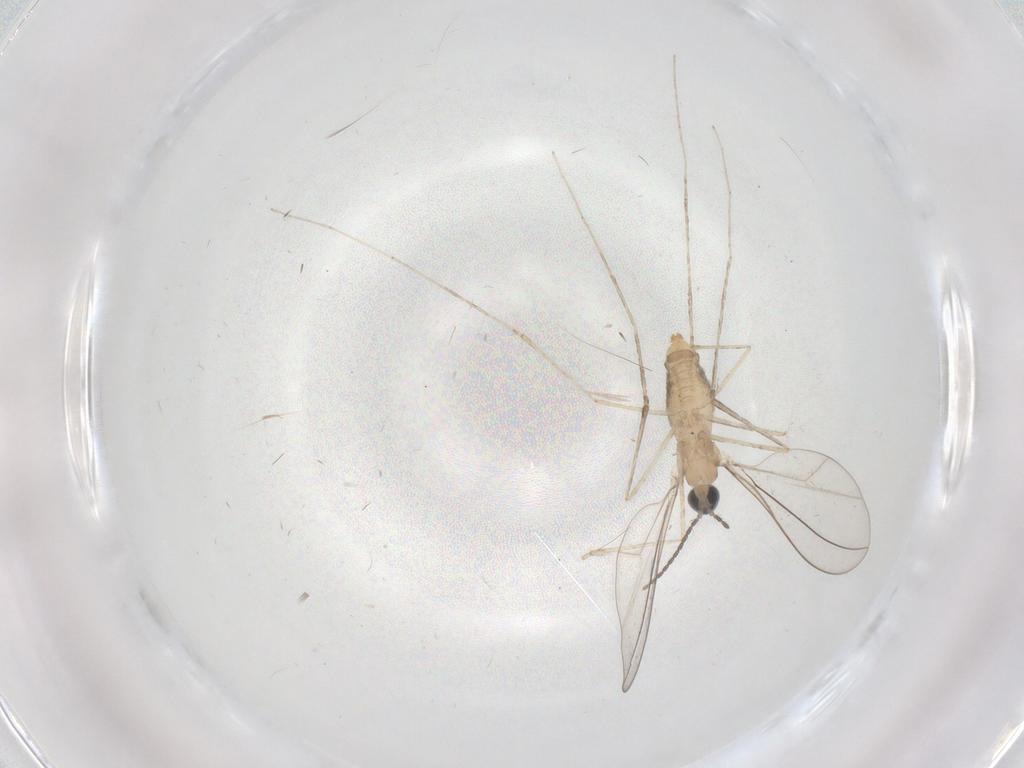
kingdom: Animalia
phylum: Arthropoda
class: Insecta
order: Diptera
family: Cecidomyiidae
